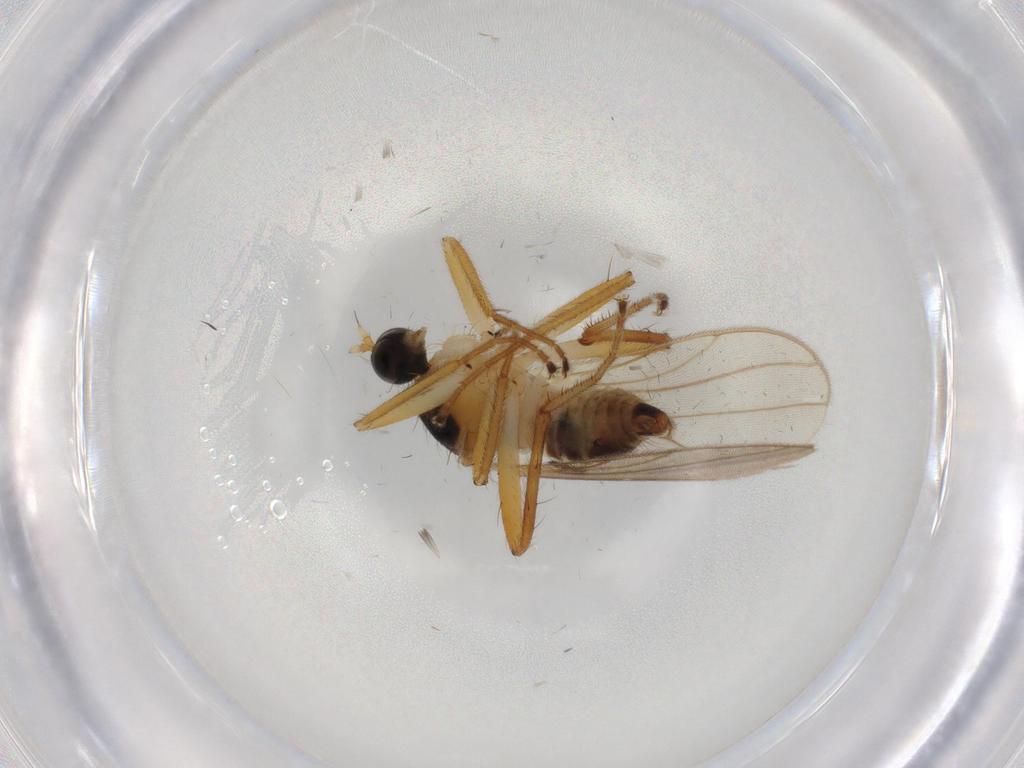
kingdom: Animalia
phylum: Arthropoda
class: Insecta
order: Diptera
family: Hybotidae
